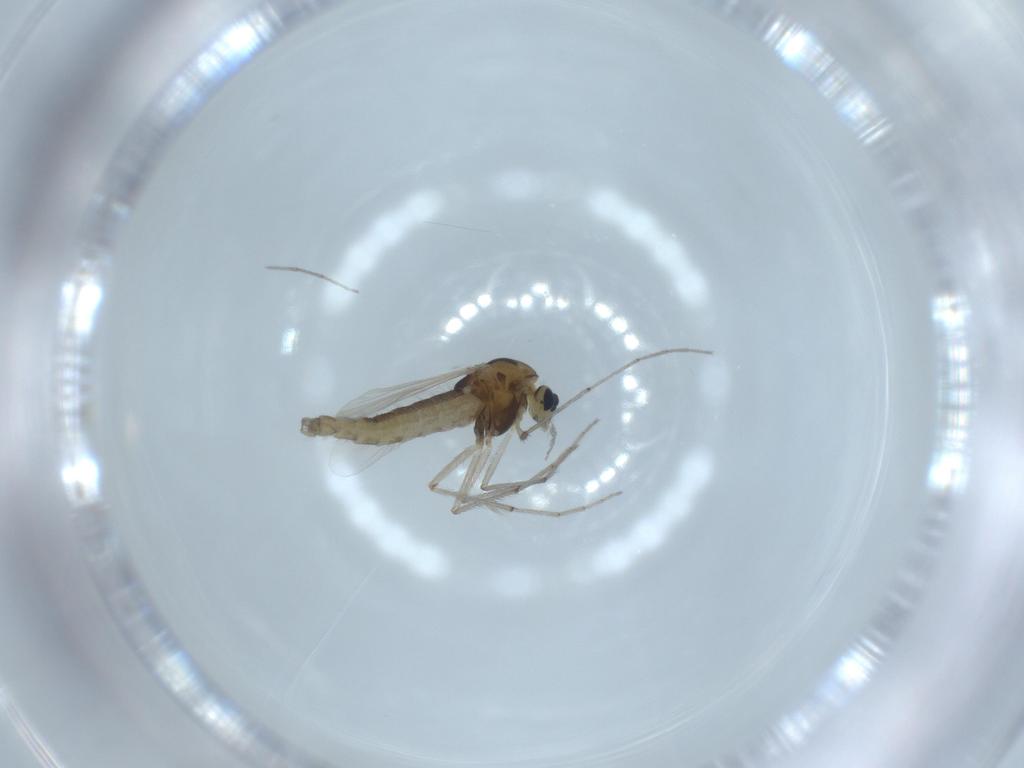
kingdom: Animalia
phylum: Arthropoda
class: Insecta
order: Diptera
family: Chironomidae
